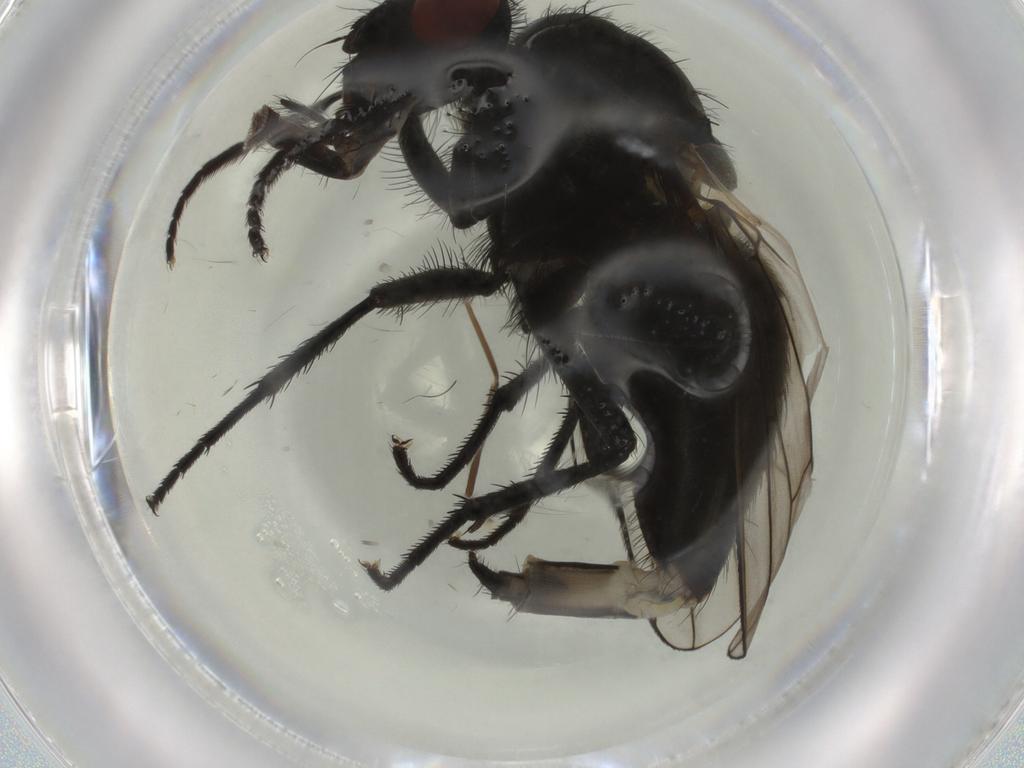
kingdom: Animalia
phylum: Arthropoda
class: Insecta
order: Diptera
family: Muscidae
